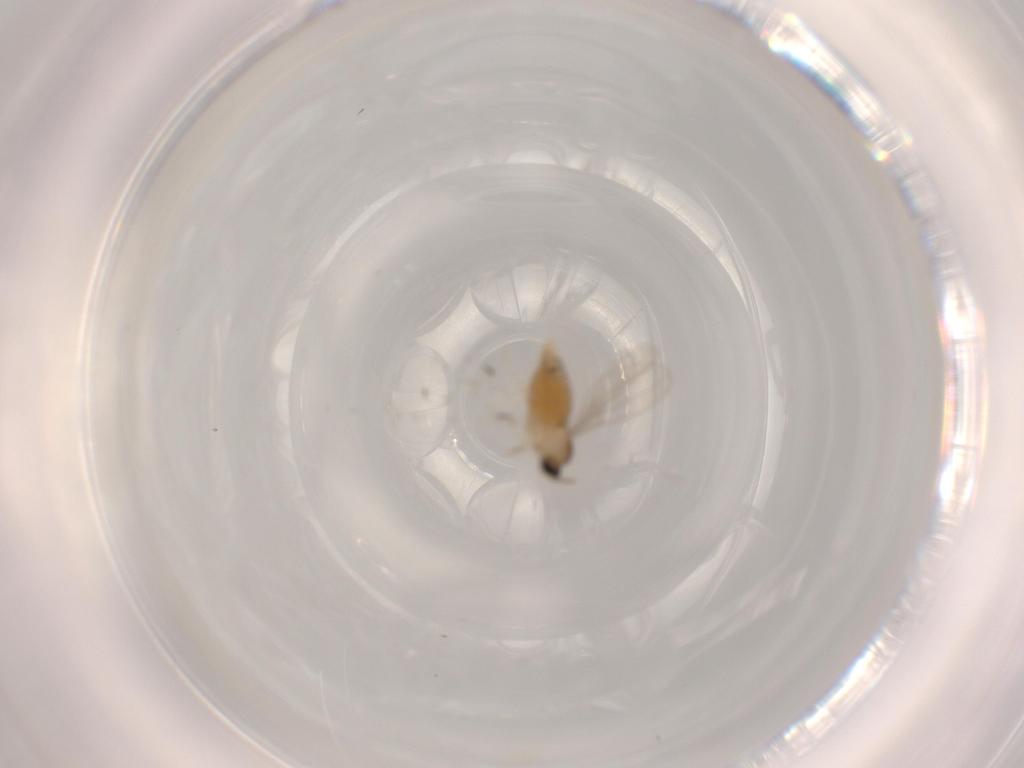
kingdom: Animalia
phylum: Arthropoda
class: Insecta
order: Diptera
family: Cecidomyiidae
